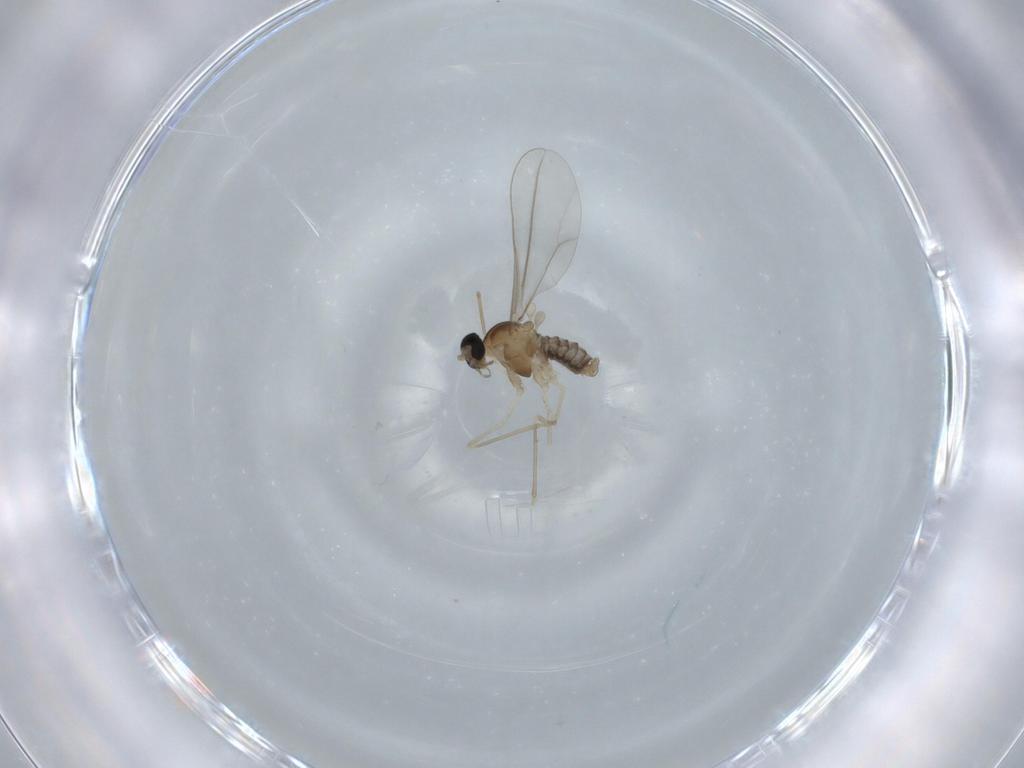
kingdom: Animalia
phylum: Arthropoda
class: Insecta
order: Diptera
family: Cecidomyiidae
